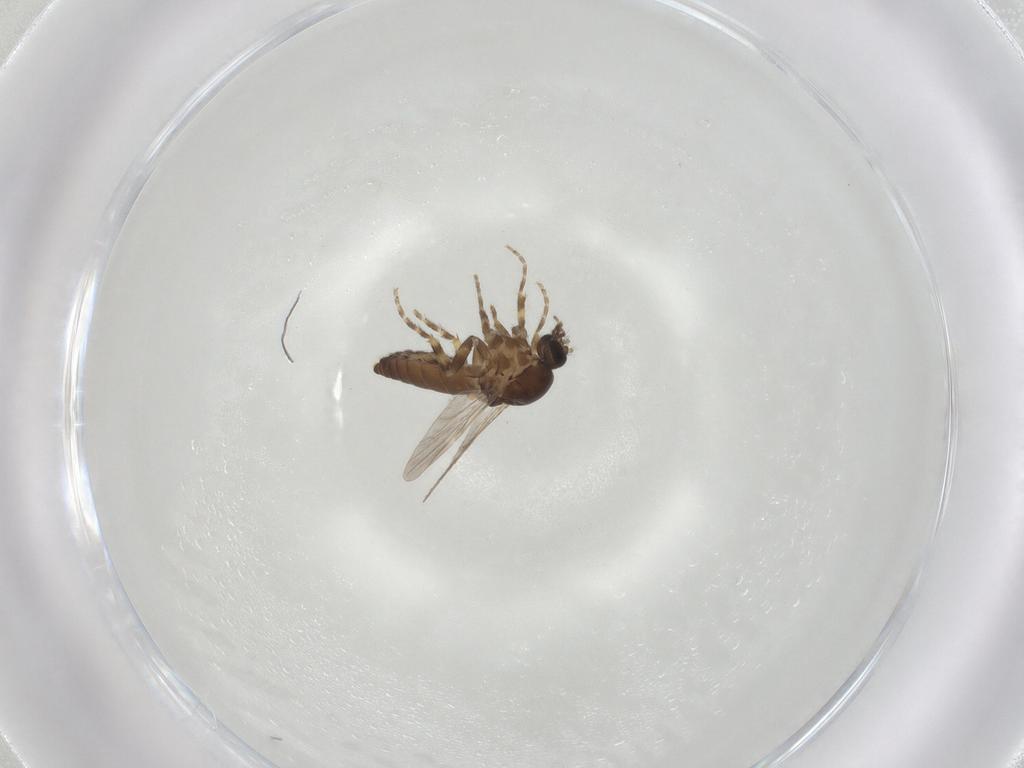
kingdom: Animalia
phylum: Arthropoda
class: Insecta
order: Diptera
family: Ceratopogonidae
